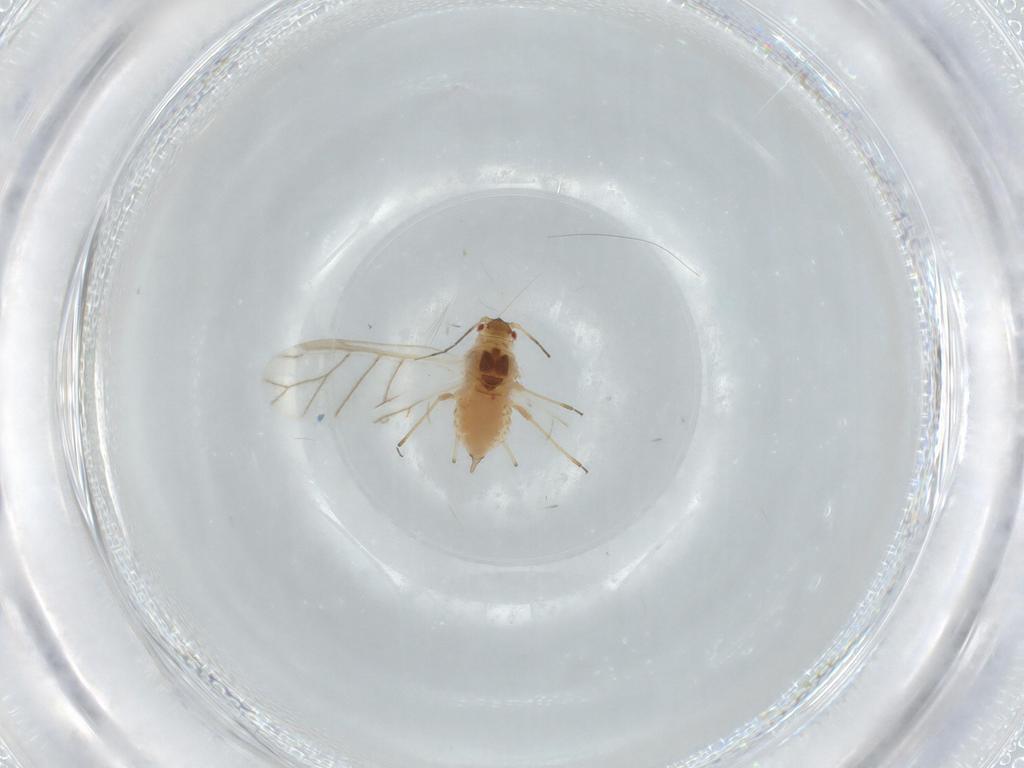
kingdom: Animalia
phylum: Arthropoda
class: Insecta
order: Hemiptera
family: Aphididae
